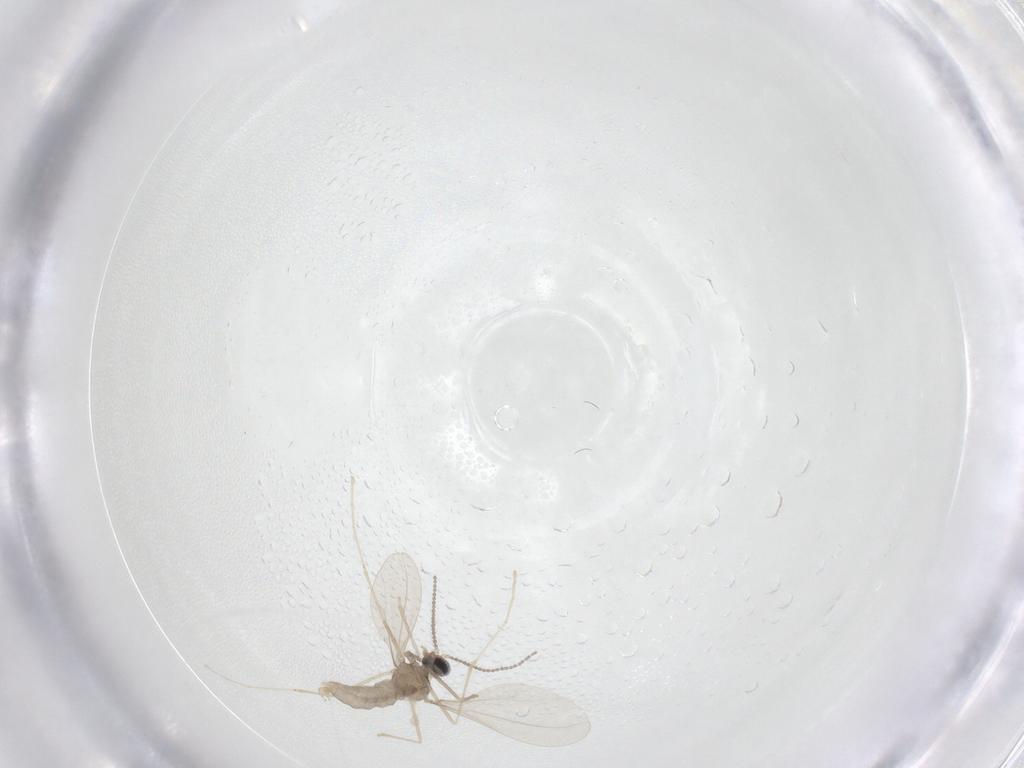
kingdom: Animalia
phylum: Arthropoda
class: Insecta
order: Diptera
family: Cecidomyiidae
